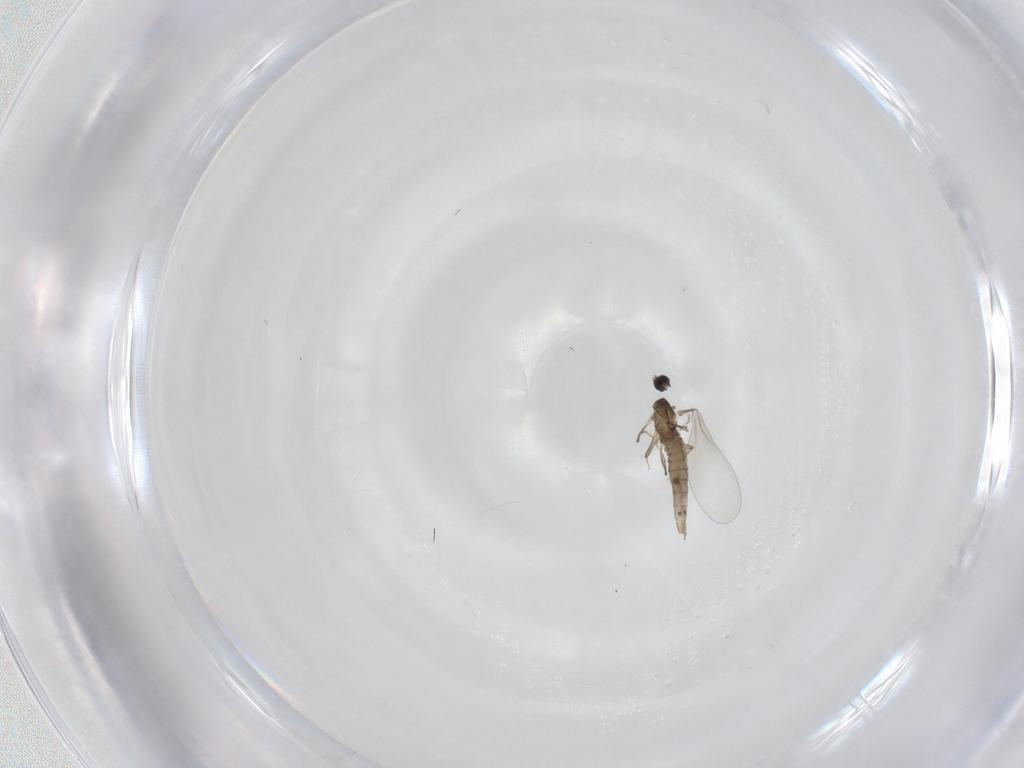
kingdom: Animalia
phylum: Arthropoda
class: Insecta
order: Diptera
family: Cecidomyiidae
